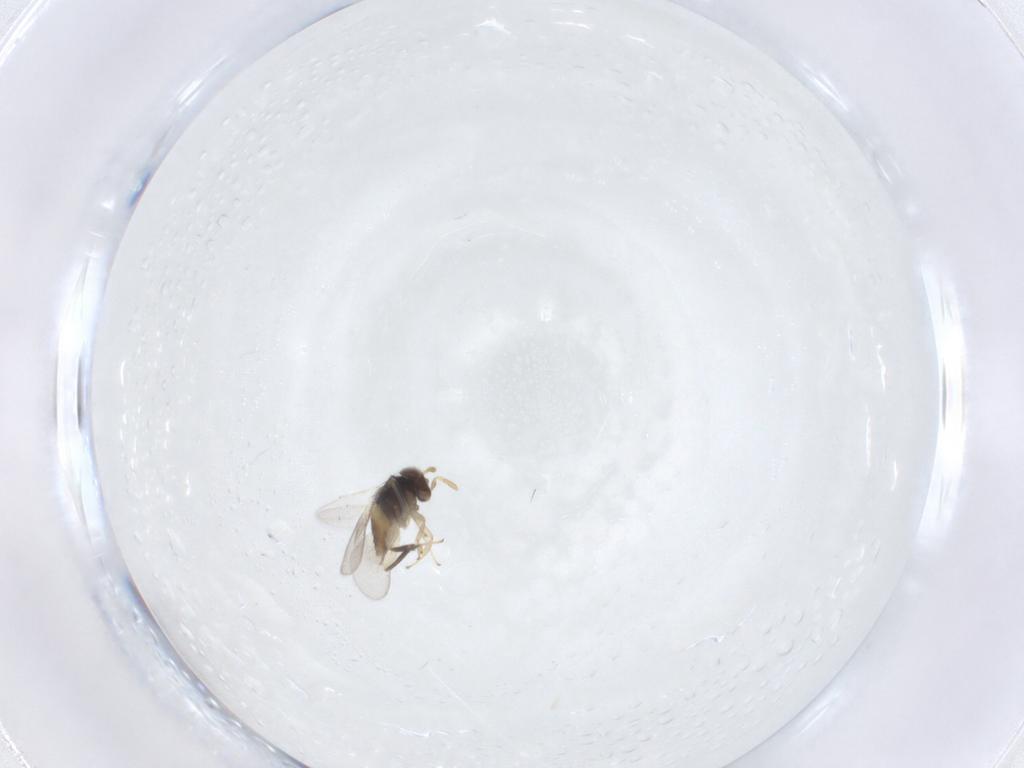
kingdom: Animalia
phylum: Arthropoda
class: Insecta
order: Hymenoptera
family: Aphelinidae
